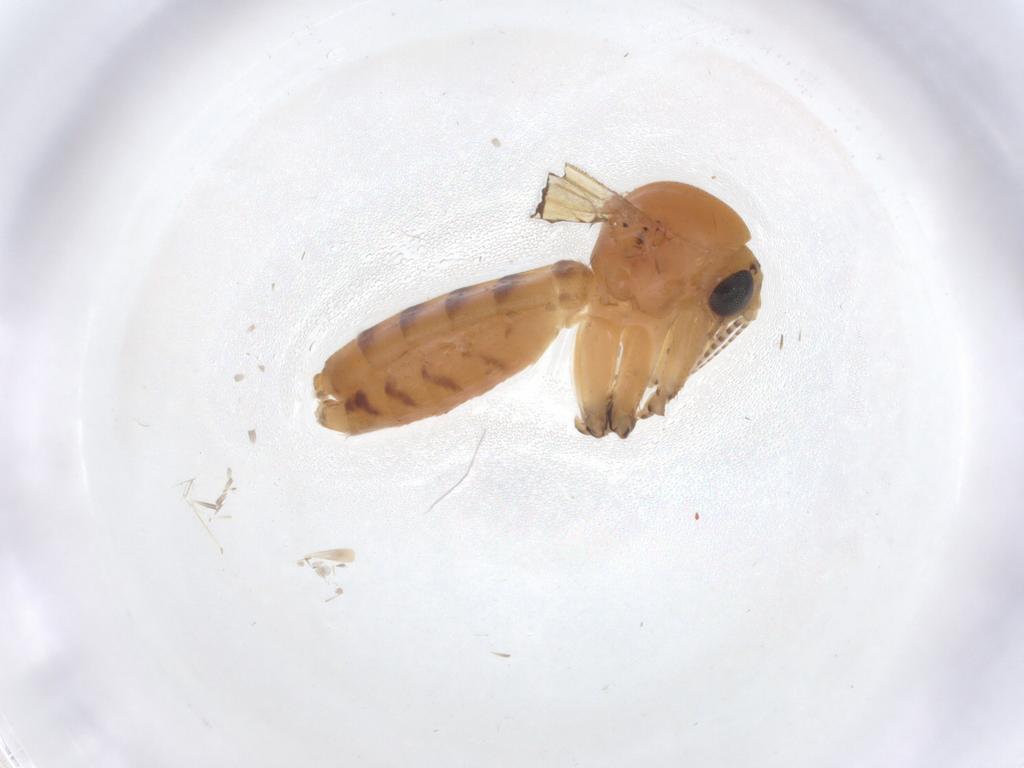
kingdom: Animalia
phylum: Arthropoda
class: Insecta
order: Diptera
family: Mycetophilidae
